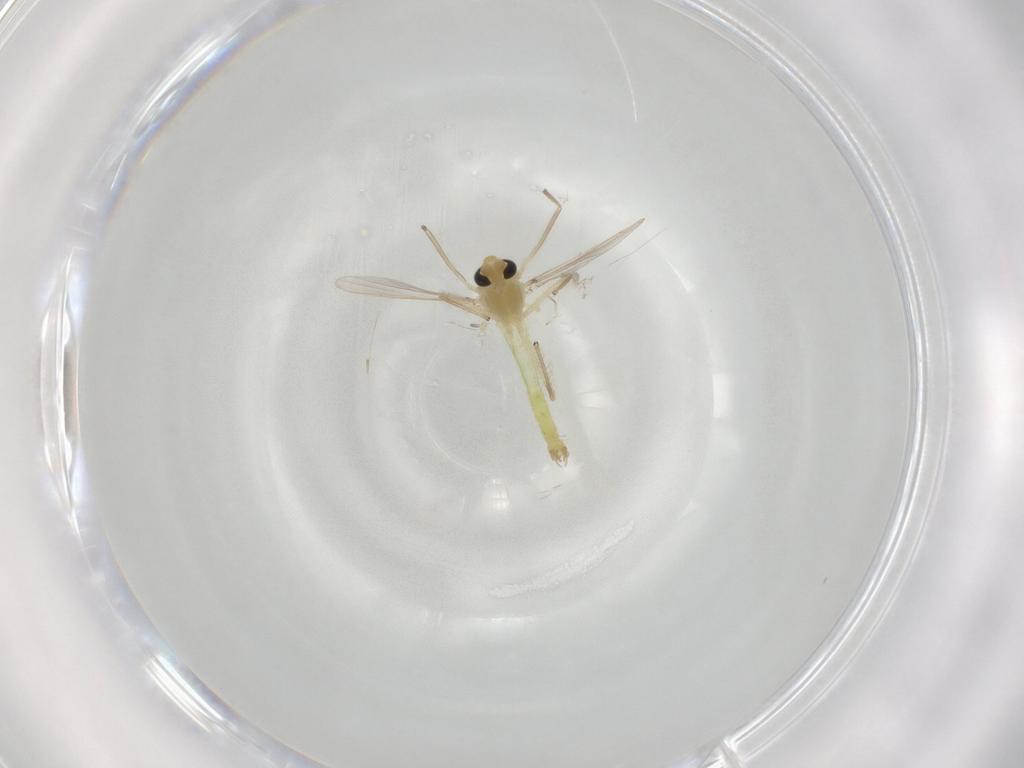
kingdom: Animalia
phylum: Arthropoda
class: Insecta
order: Diptera
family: Chironomidae
